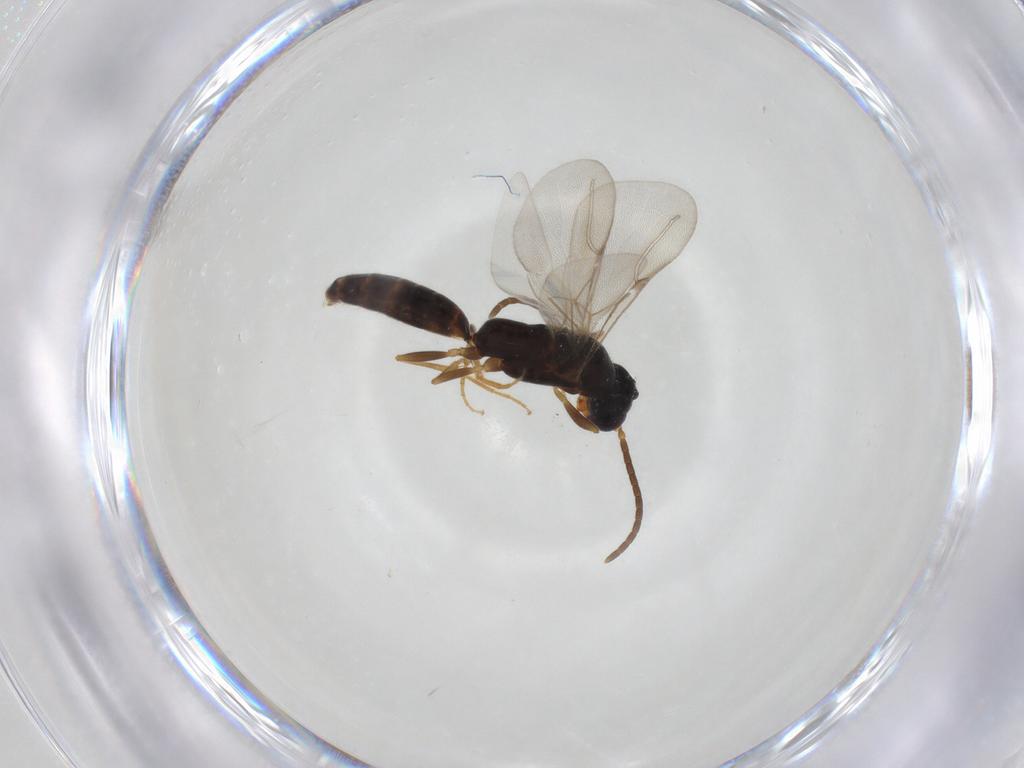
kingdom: Animalia
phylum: Arthropoda
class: Insecta
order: Hymenoptera
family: Bethylidae
